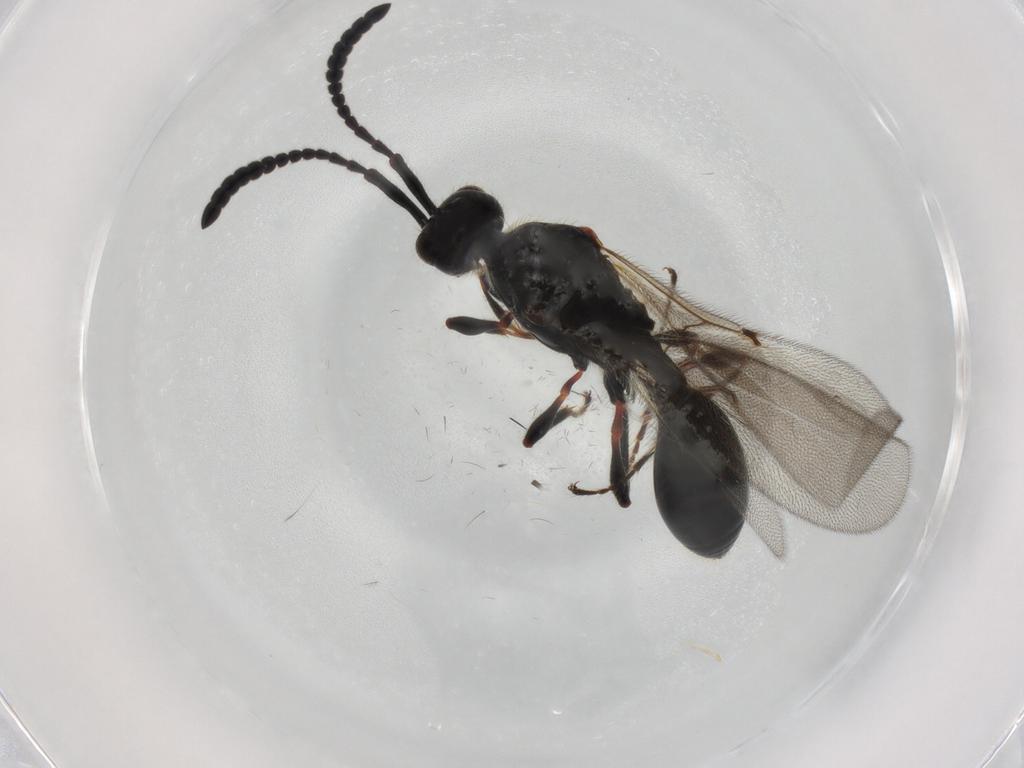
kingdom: Animalia
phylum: Arthropoda
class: Insecta
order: Hymenoptera
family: Diapriidae
